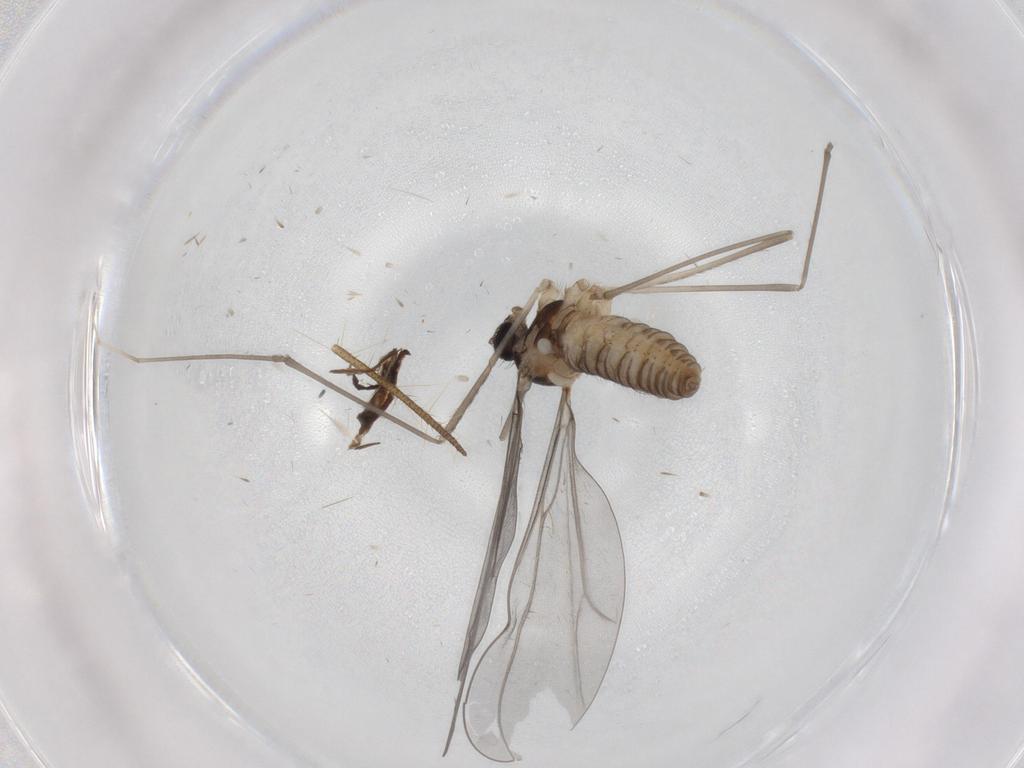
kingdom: Animalia
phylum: Arthropoda
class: Insecta
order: Diptera
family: Cecidomyiidae
